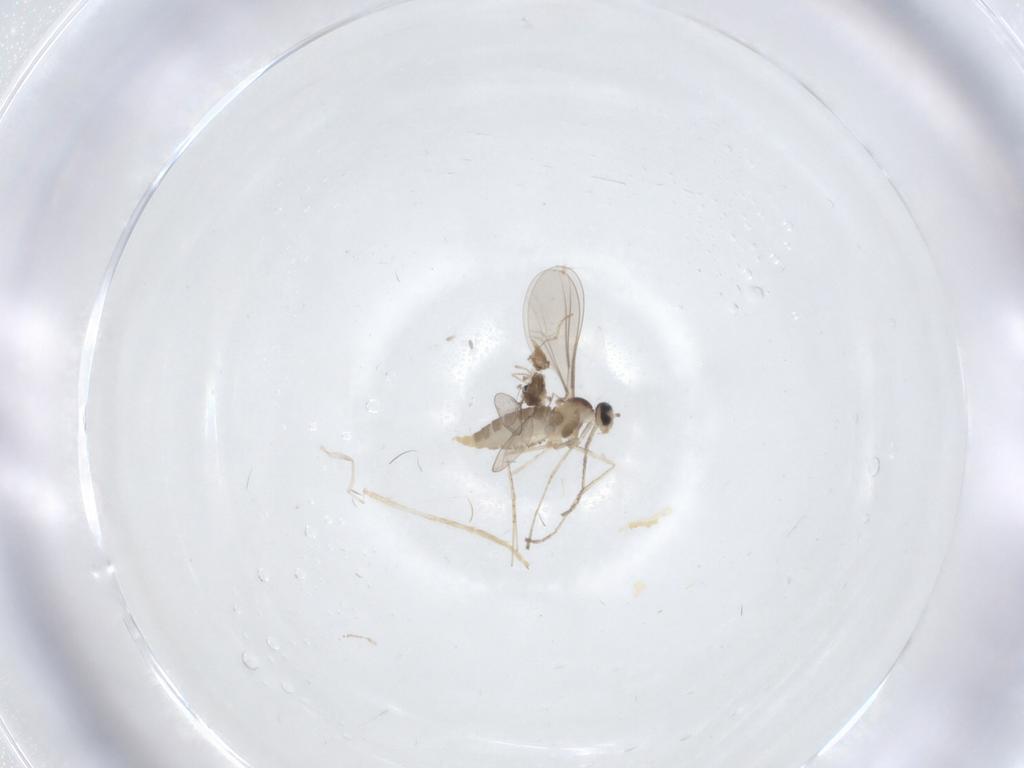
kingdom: Animalia
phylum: Arthropoda
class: Insecta
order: Diptera
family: Cecidomyiidae
